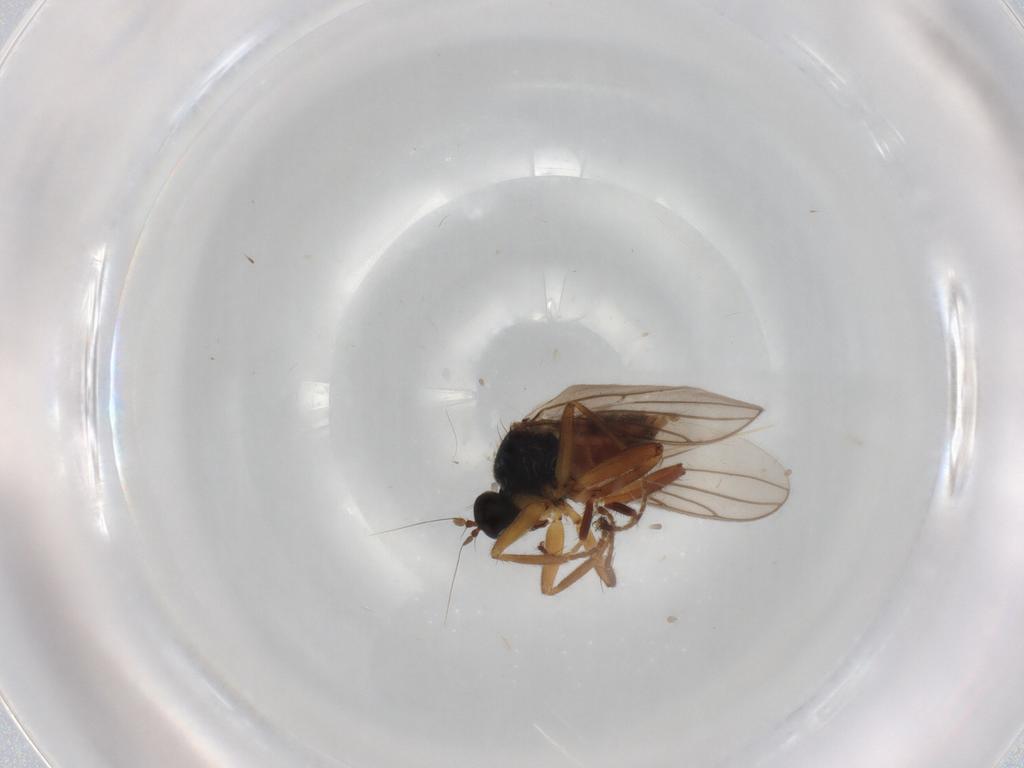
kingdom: Animalia
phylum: Arthropoda
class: Insecta
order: Diptera
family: Hybotidae
